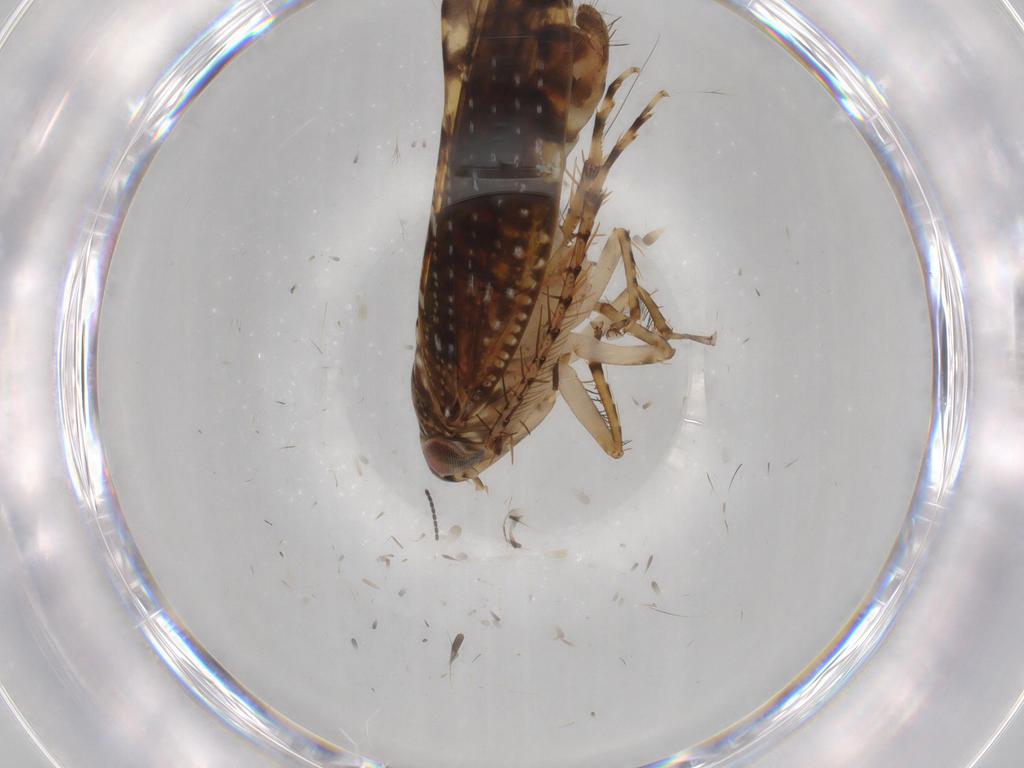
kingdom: Animalia
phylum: Arthropoda
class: Insecta
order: Hemiptera
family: Cicadellidae
